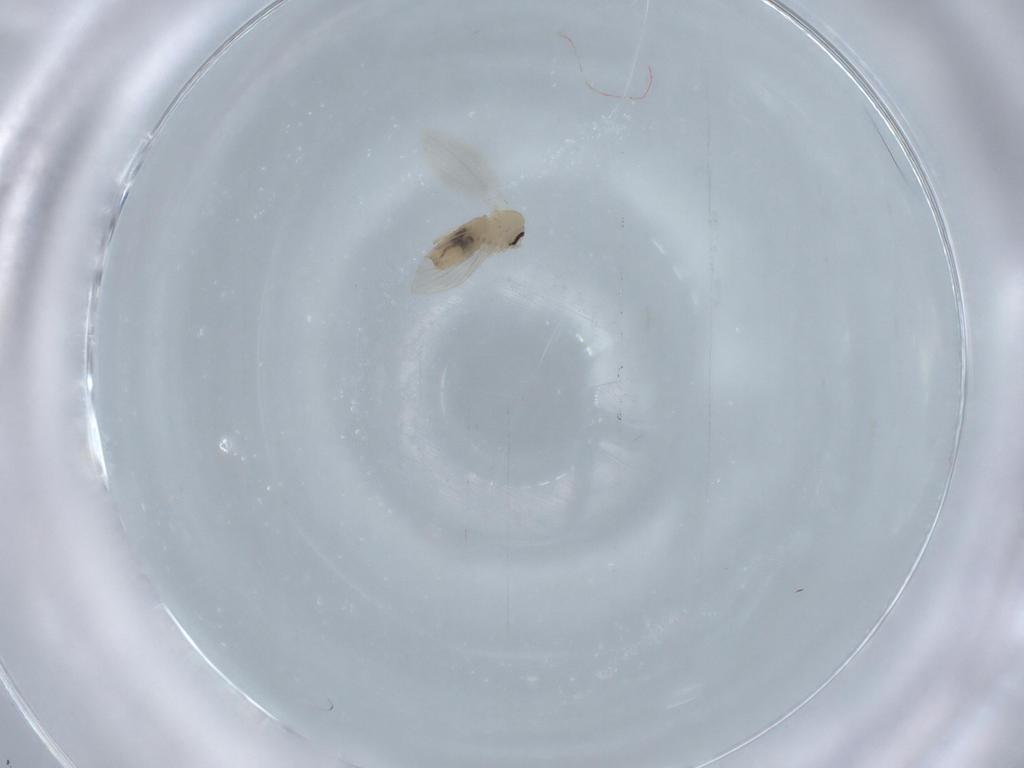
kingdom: Animalia
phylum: Arthropoda
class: Insecta
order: Diptera
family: Psychodidae
